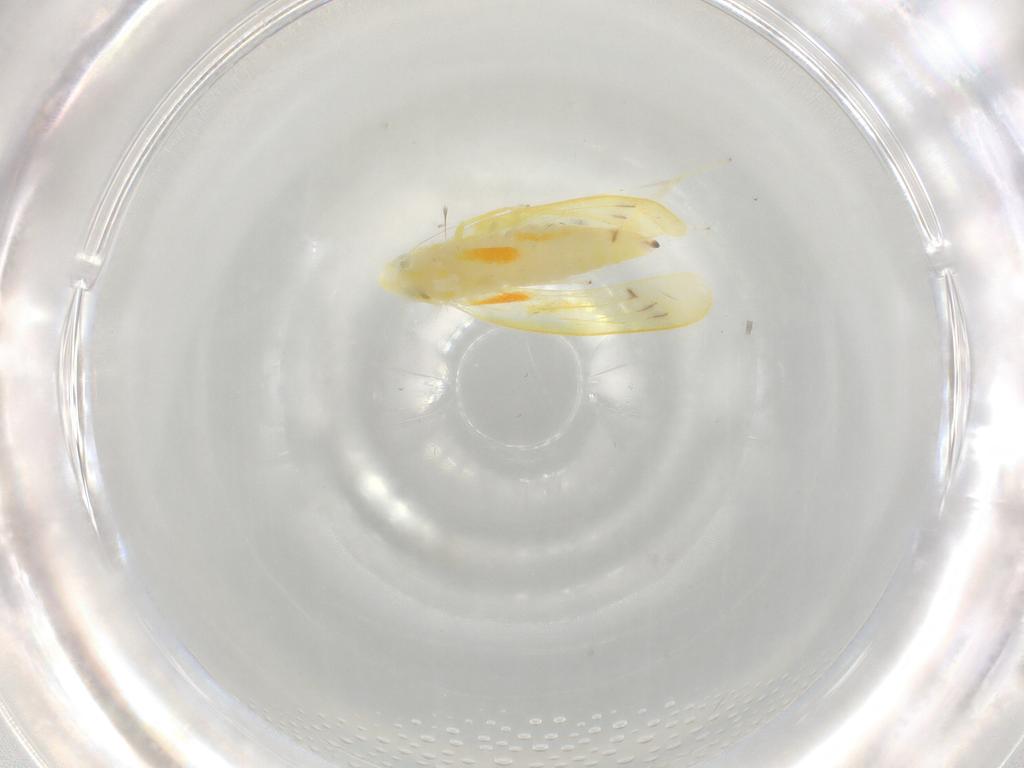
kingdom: Animalia
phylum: Arthropoda
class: Insecta
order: Hemiptera
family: Cicadellidae
